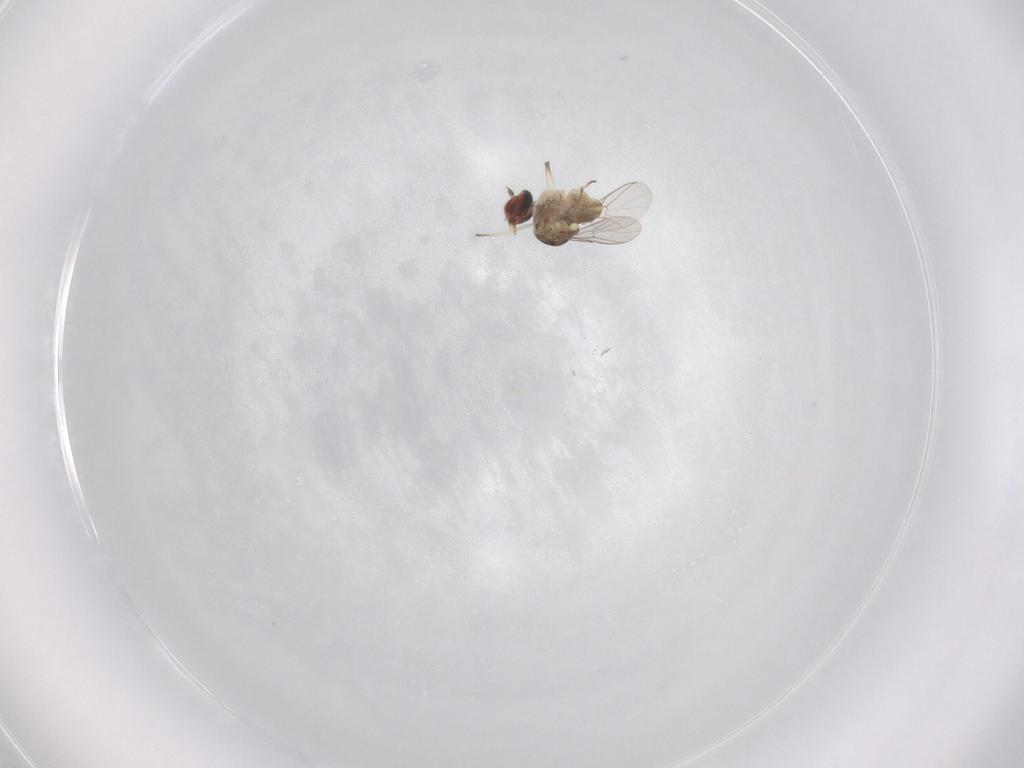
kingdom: Animalia
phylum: Arthropoda
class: Insecta
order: Diptera
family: Bombyliidae
